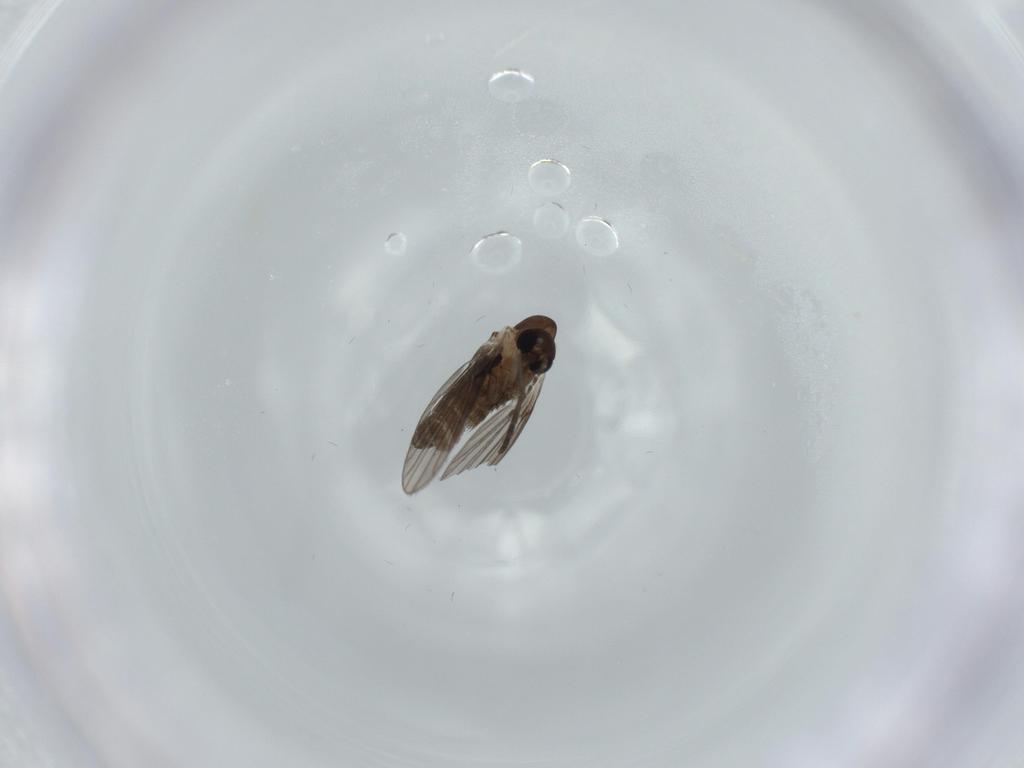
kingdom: Animalia
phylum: Arthropoda
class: Insecta
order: Diptera
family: Psychodidae
